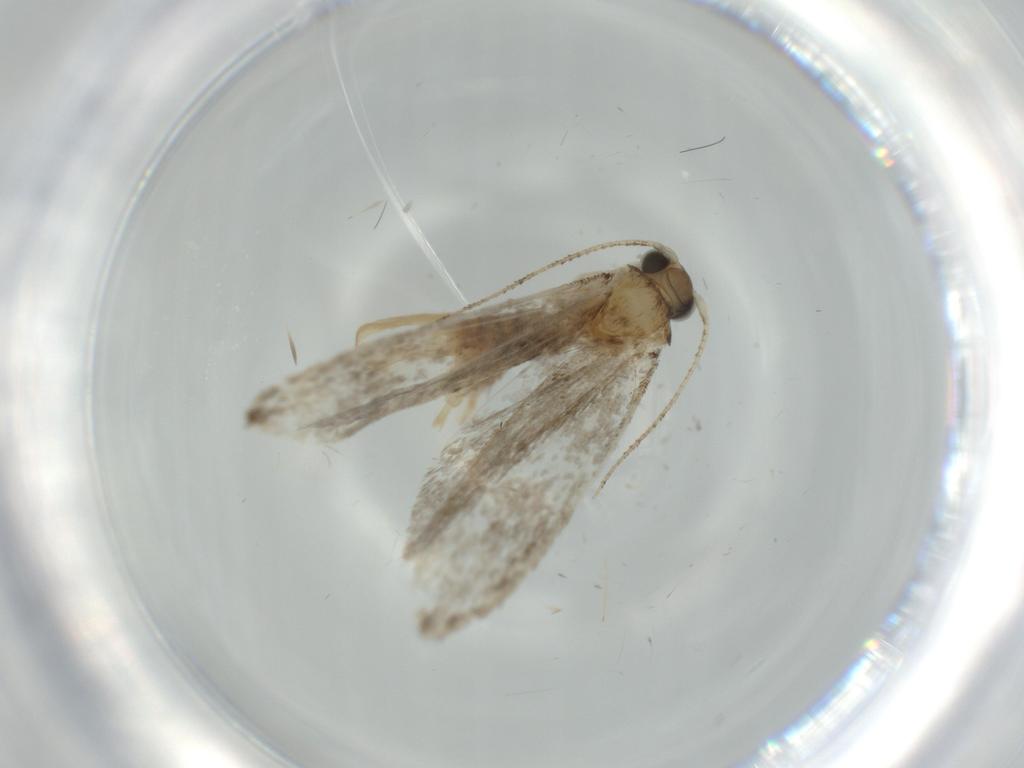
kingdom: Animalia
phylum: Arthropoda
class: Insecta
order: Lepidoptera
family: Tineidae
